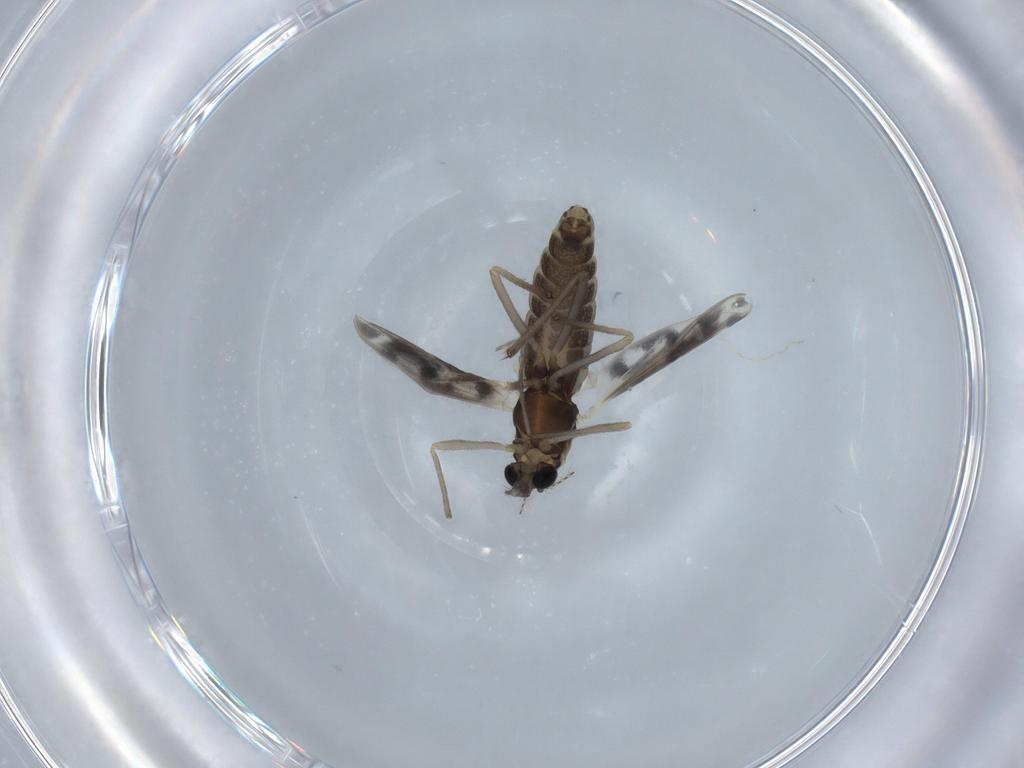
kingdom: Animalia
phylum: Arthropoda
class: Insecta
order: Diptera
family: Chironomidae
